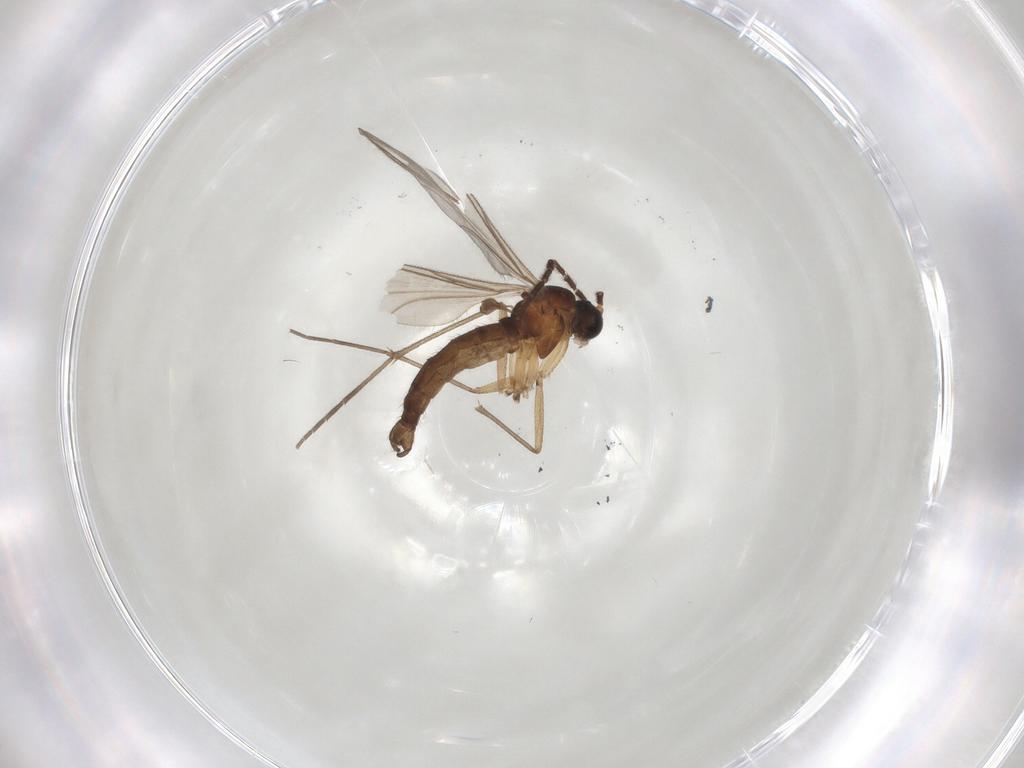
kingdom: Animalia
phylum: Arthropoda
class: Insecta
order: Diptera
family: Sciaridae
